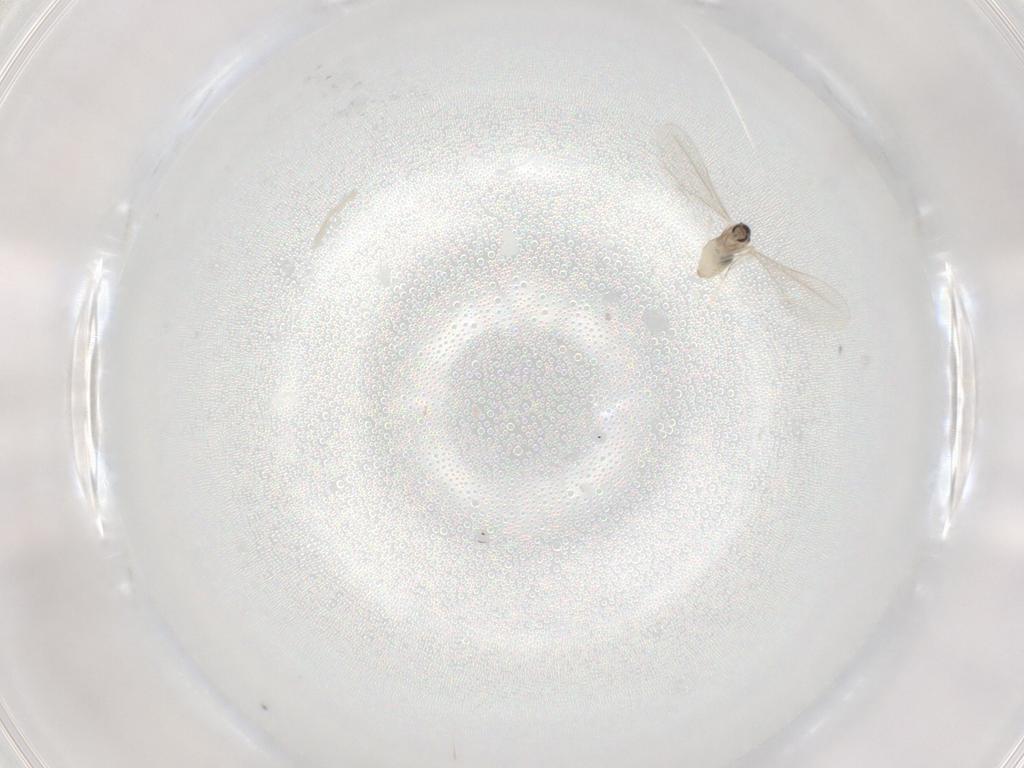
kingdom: Animalia
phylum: Arthropoda
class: Insecta
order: Diptera
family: Cecidomyiidae
